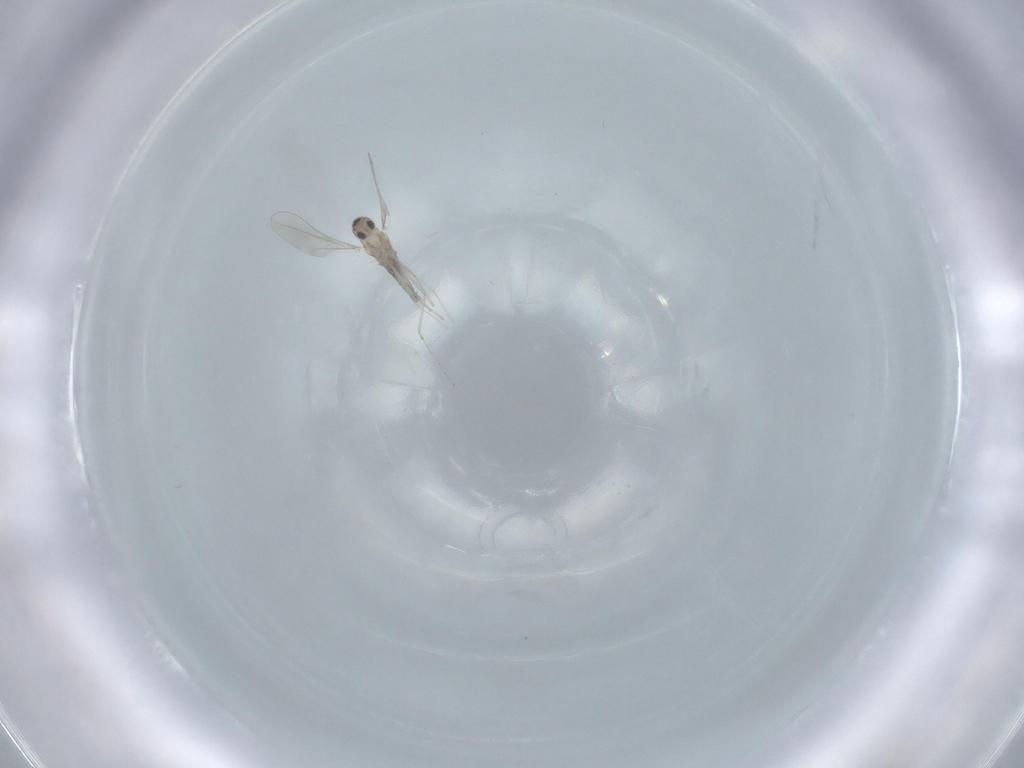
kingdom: Animalia
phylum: Arthropoda
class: Insecta
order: Diptera
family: Cecidomyiidae
